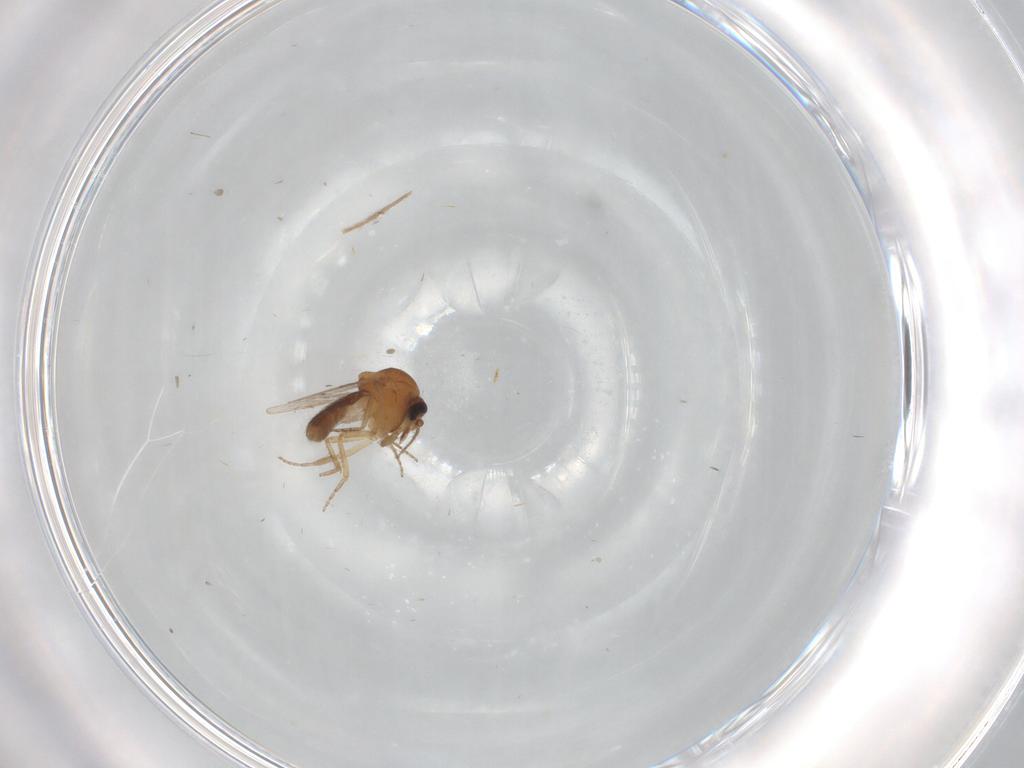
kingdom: Animalia
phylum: Arthropoda
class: Insecta
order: Diptera
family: Ceratopogonidae
